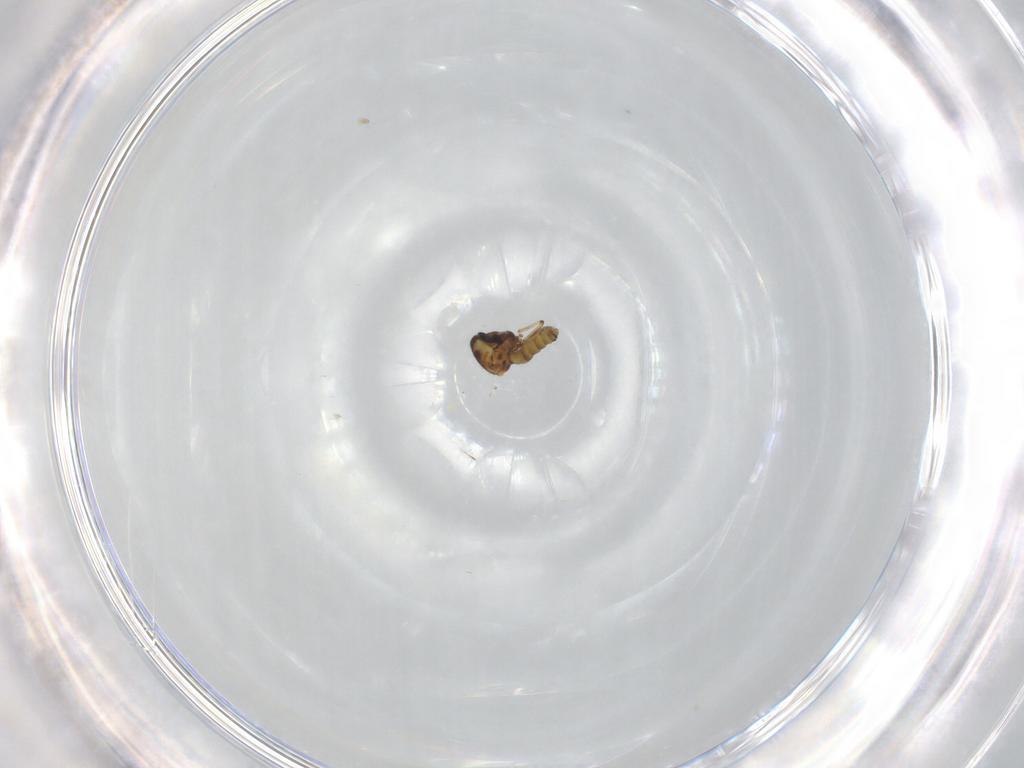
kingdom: Animalia
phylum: Arthropoda
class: Insecta
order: Diptera
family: Ceratopogonidae
